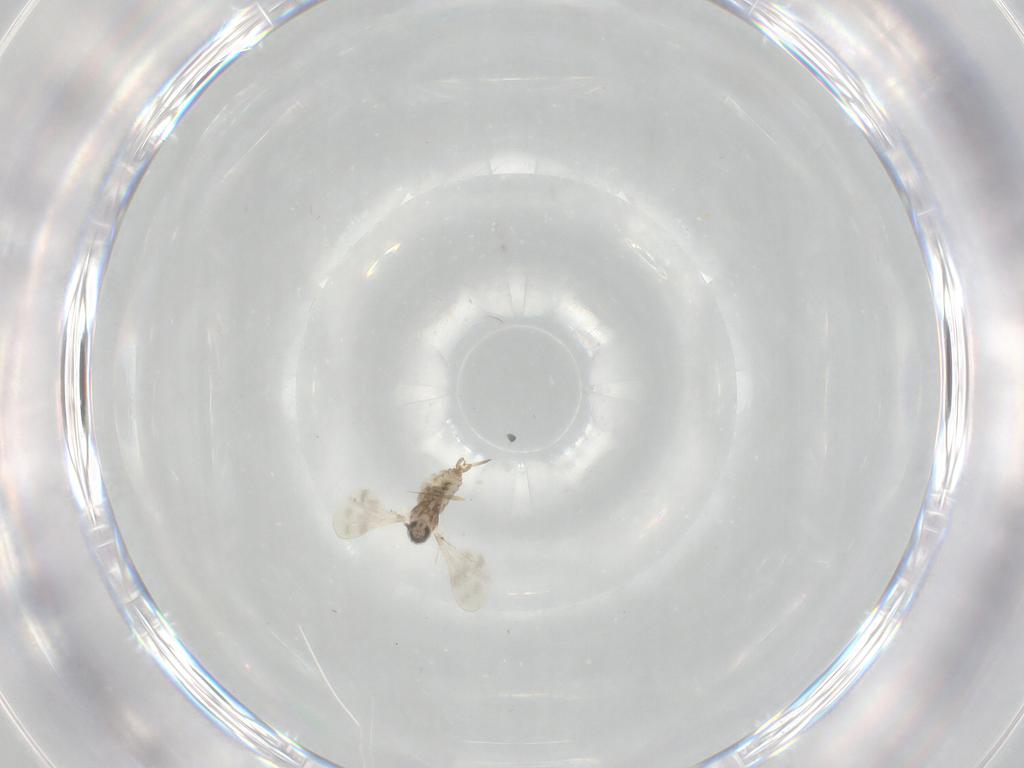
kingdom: Animalia
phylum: Arthropoda
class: Insecta
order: Diptera
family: Cecidomyiidae
